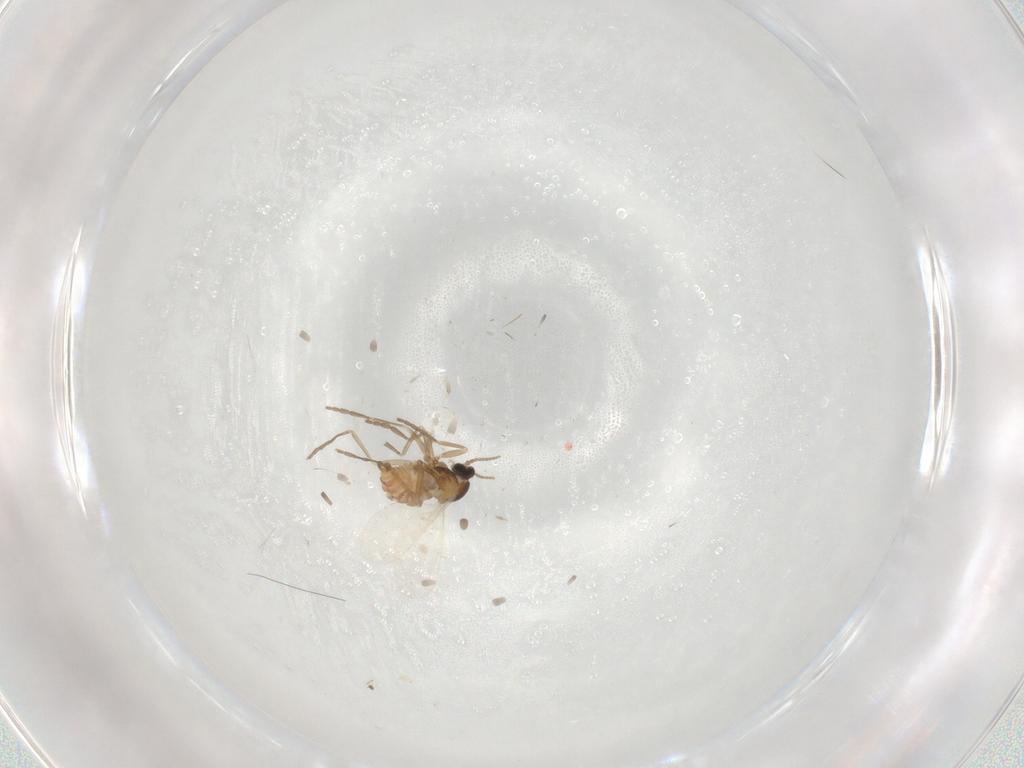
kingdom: Animalia
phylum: Arthropoda
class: Insecta
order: Diptera
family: Cecidomyiidae
